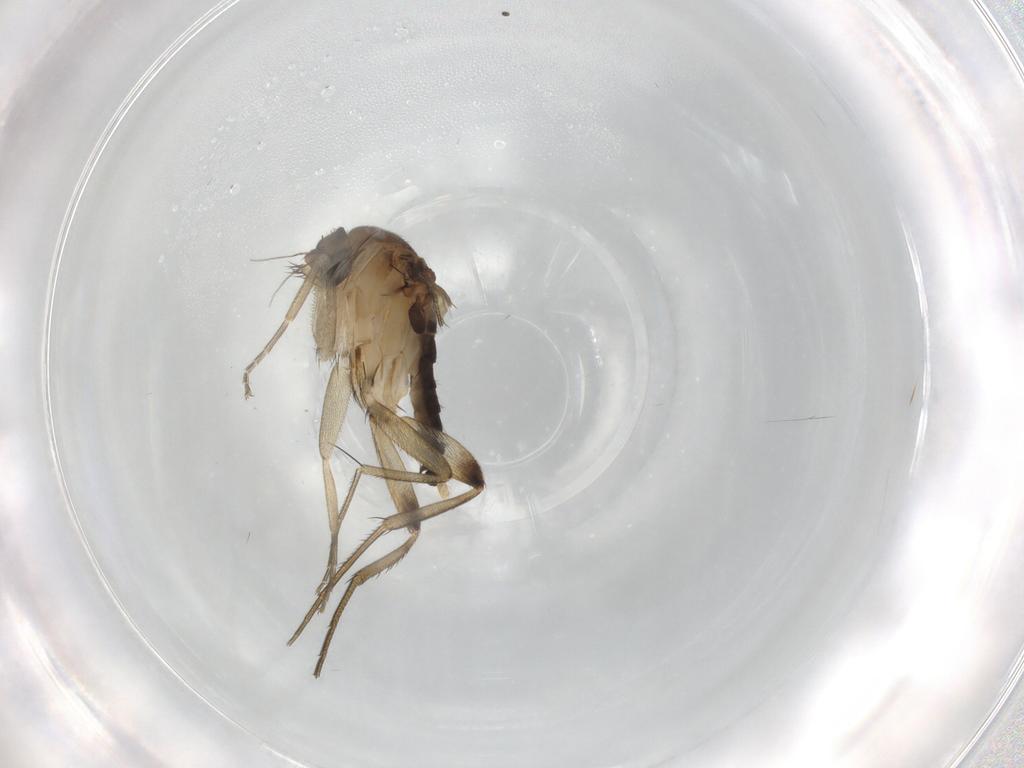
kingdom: Animalia
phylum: Arthropoda
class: Insecta
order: Diptera
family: Phoridae
